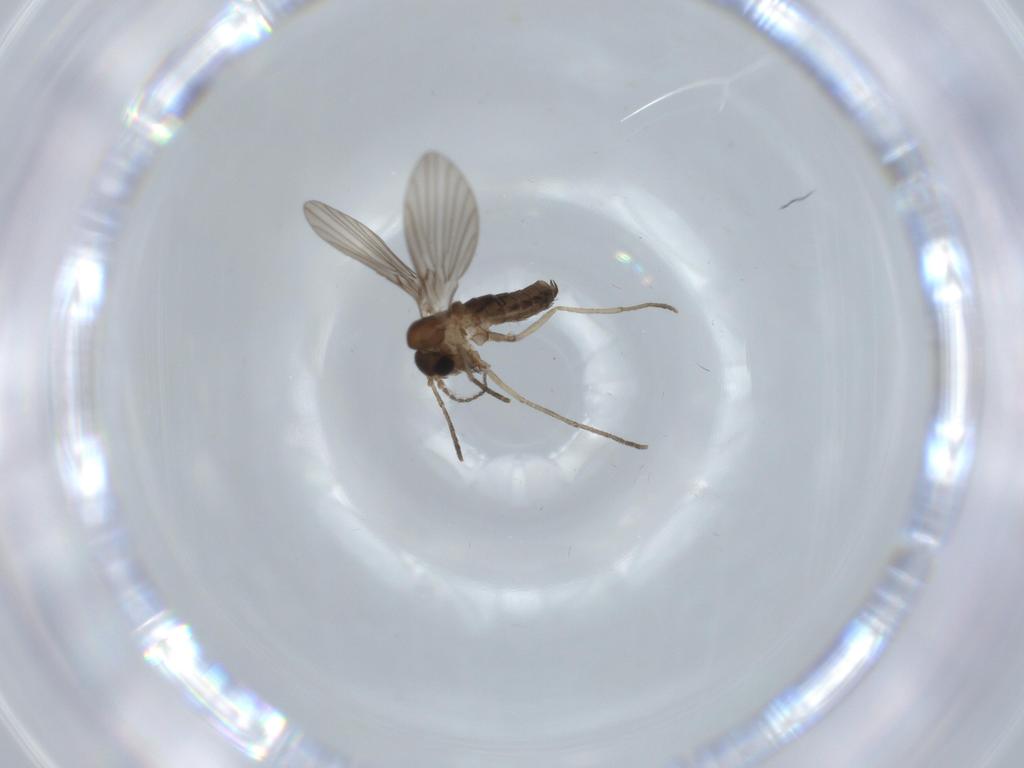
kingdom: Animalia
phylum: Arthropoda
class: Insecta
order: Diptera
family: Psychodidae
